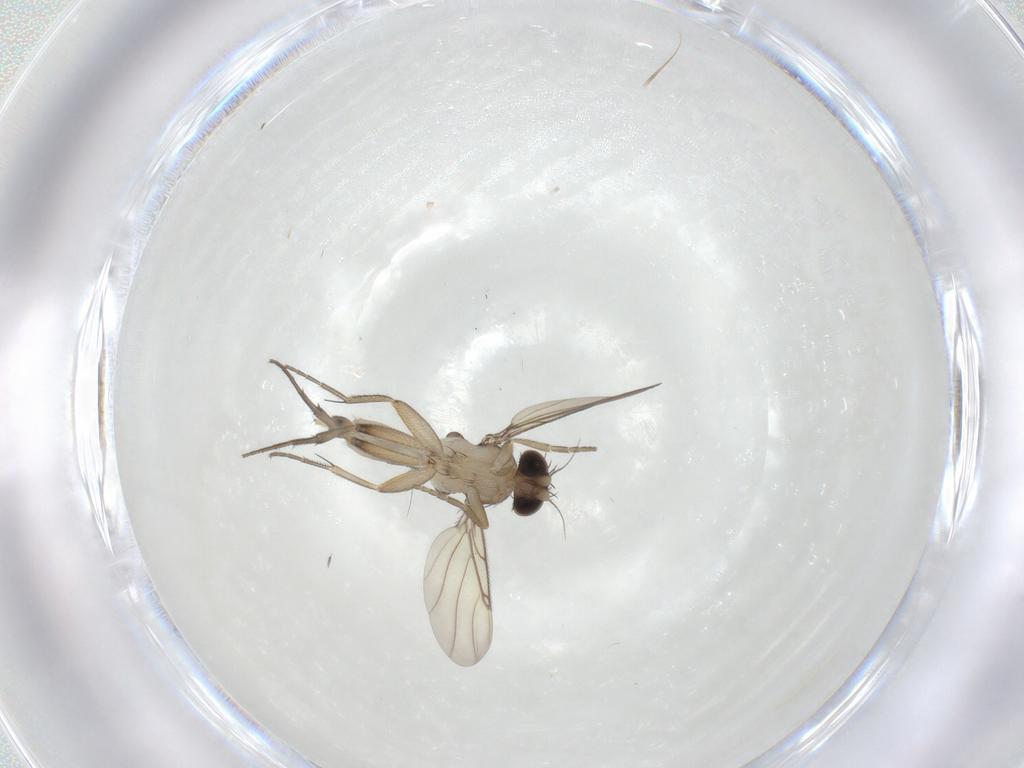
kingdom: Animalia
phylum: Arthropoda
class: Insecta
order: Diptera
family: Phoridae
